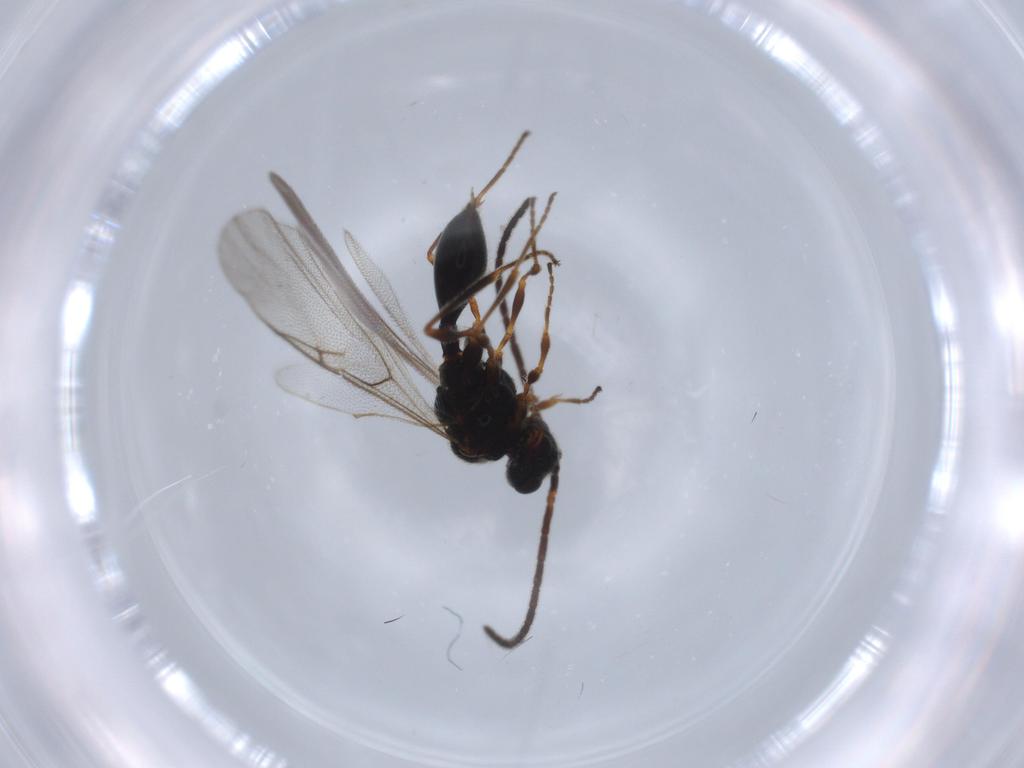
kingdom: Animalia
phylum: Arthropoda
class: Insecta
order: Hymenoptera
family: Diapriidae
